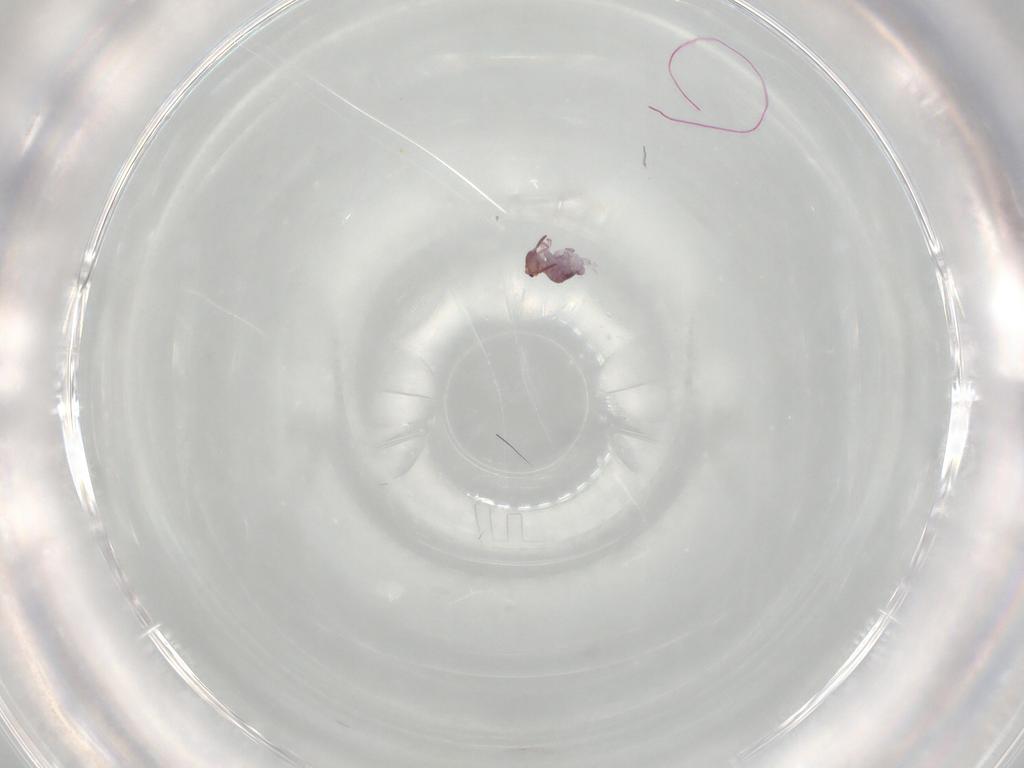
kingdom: Animalia
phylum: Arthropoda
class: Collembola
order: Symphypleona
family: Bourletiellidae
